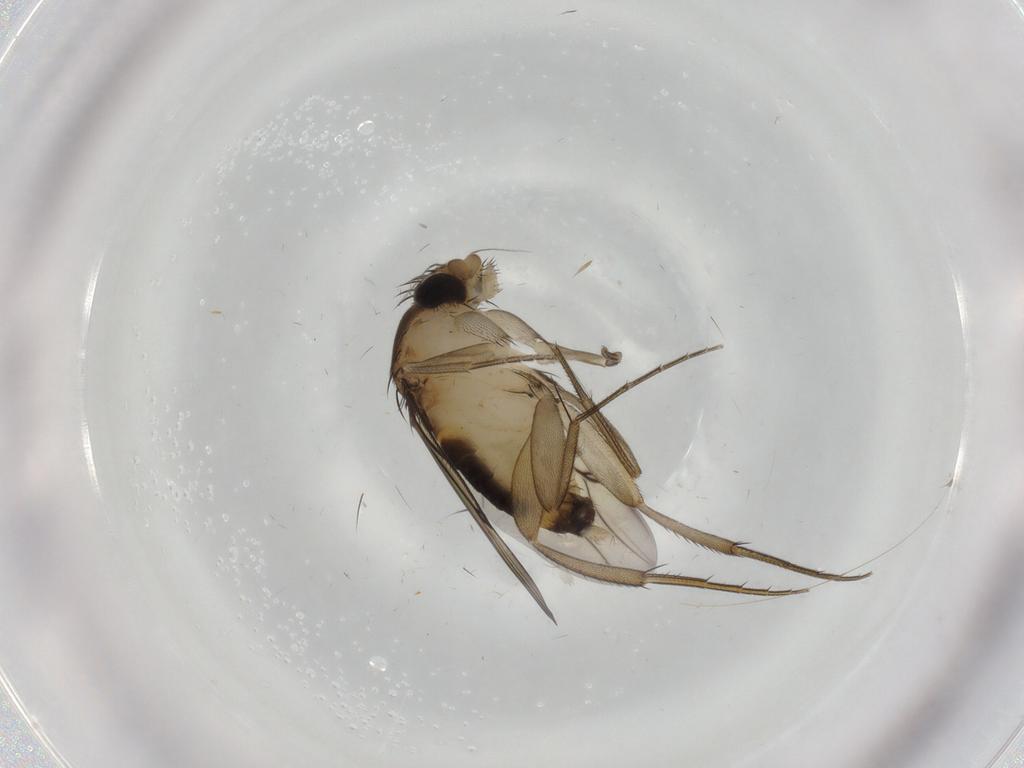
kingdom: Animalia
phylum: Arthropoda
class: Insecta
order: Diptera
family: Ceratopogonidae
